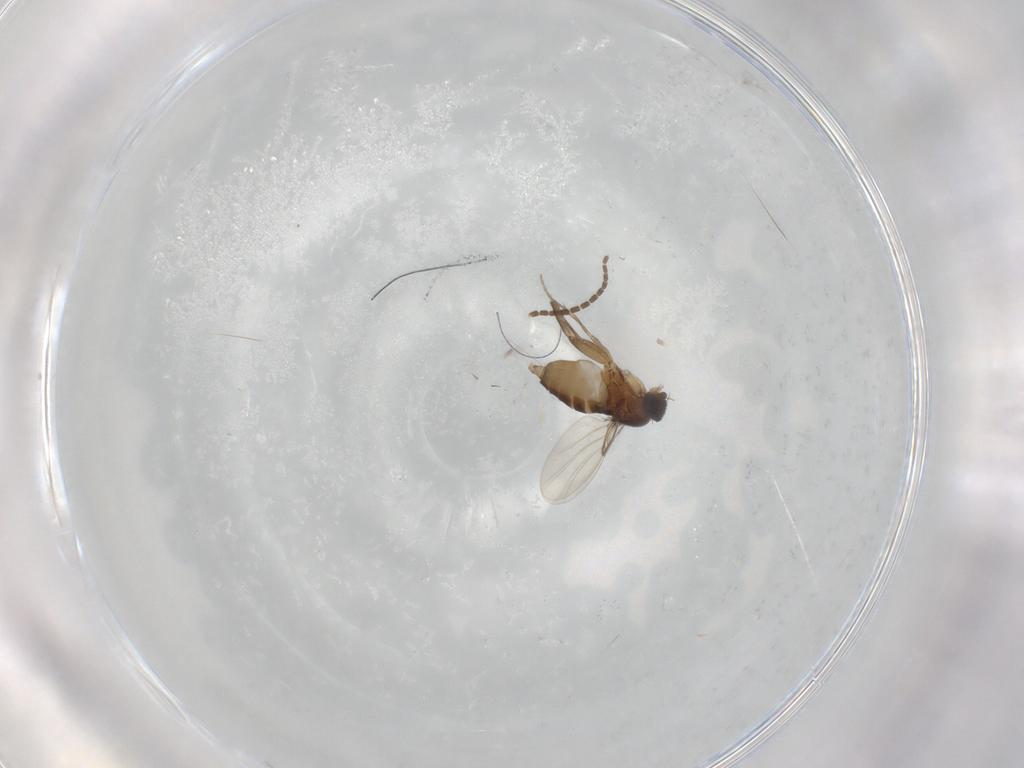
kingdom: Animalia
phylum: Arthropoda
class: Insecta
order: Diptera
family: Phoridae
